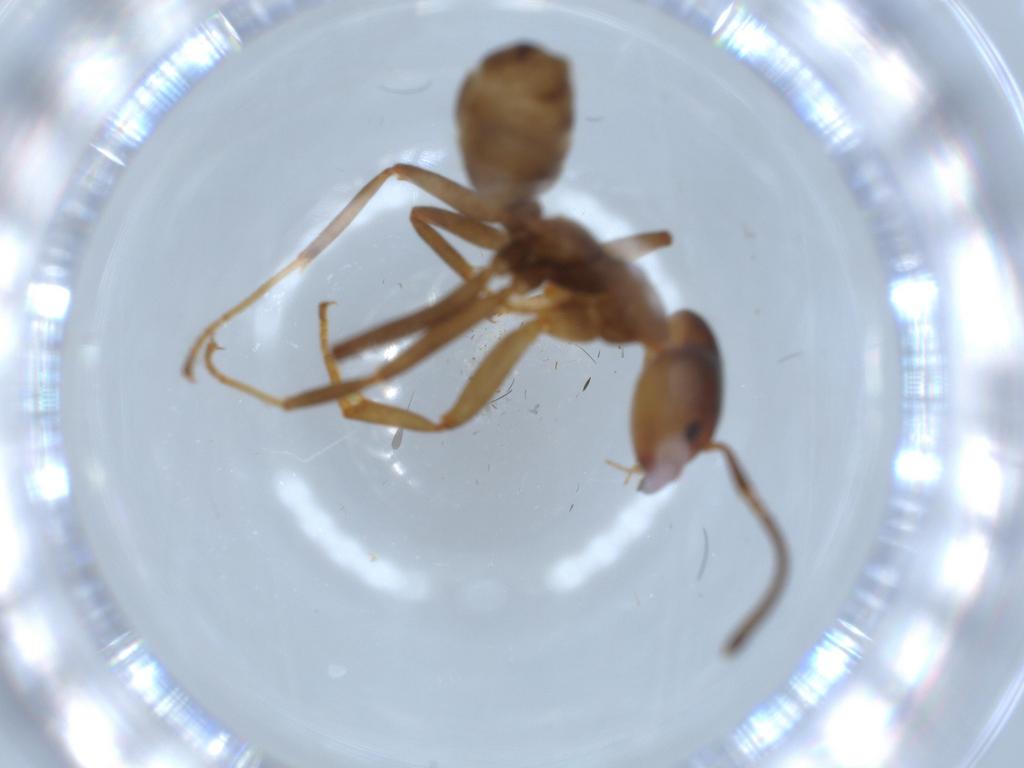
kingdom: Animalia
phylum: Arthropoda
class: Insecta
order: Hymenoptera
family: Formicidae
